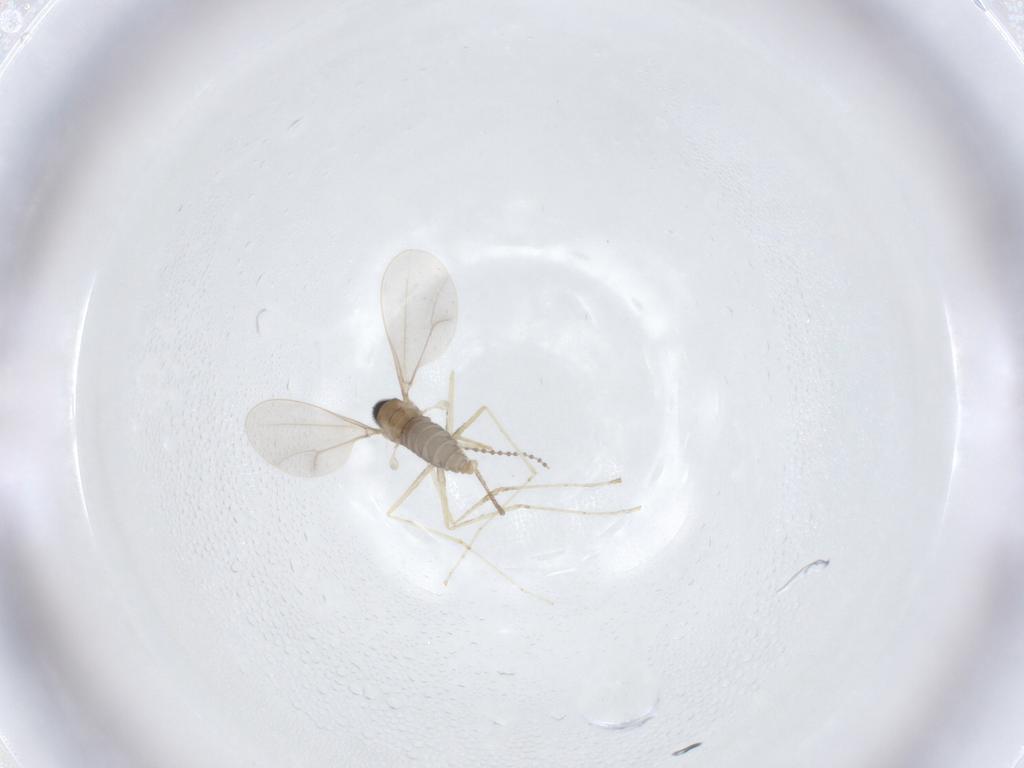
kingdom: Animalia
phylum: Arthropoda
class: Insecta
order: Diptera
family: Cecidomyiidae
